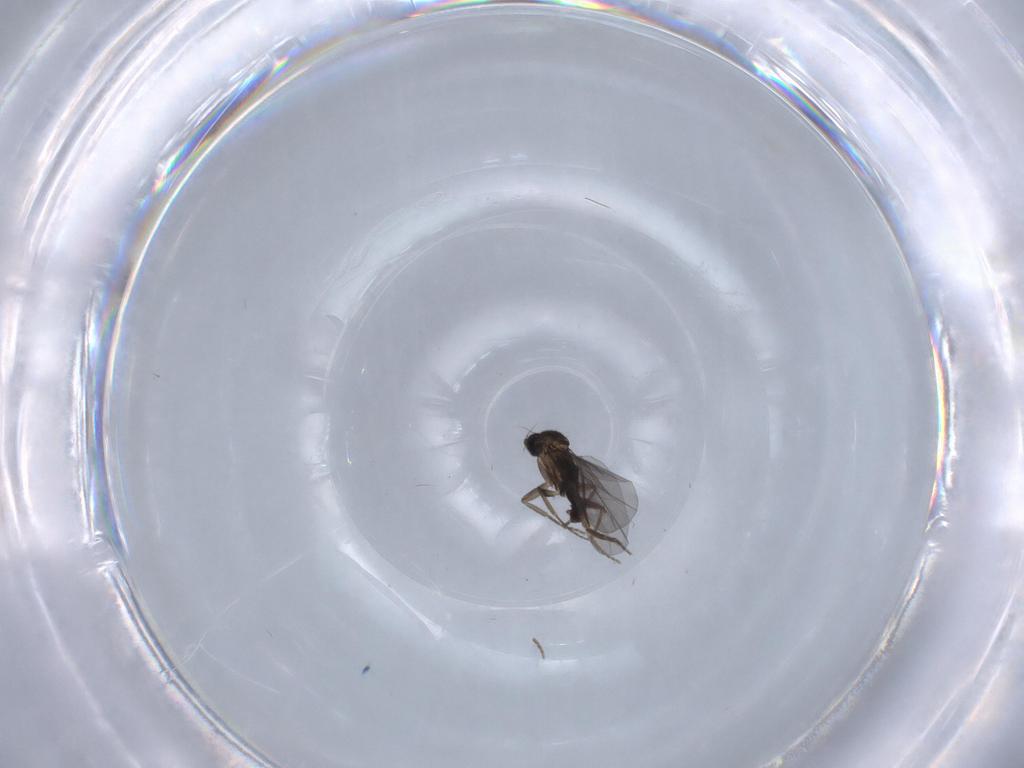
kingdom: Animalia
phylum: Arthropoda
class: Insecta
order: Diptera
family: Phoridae
